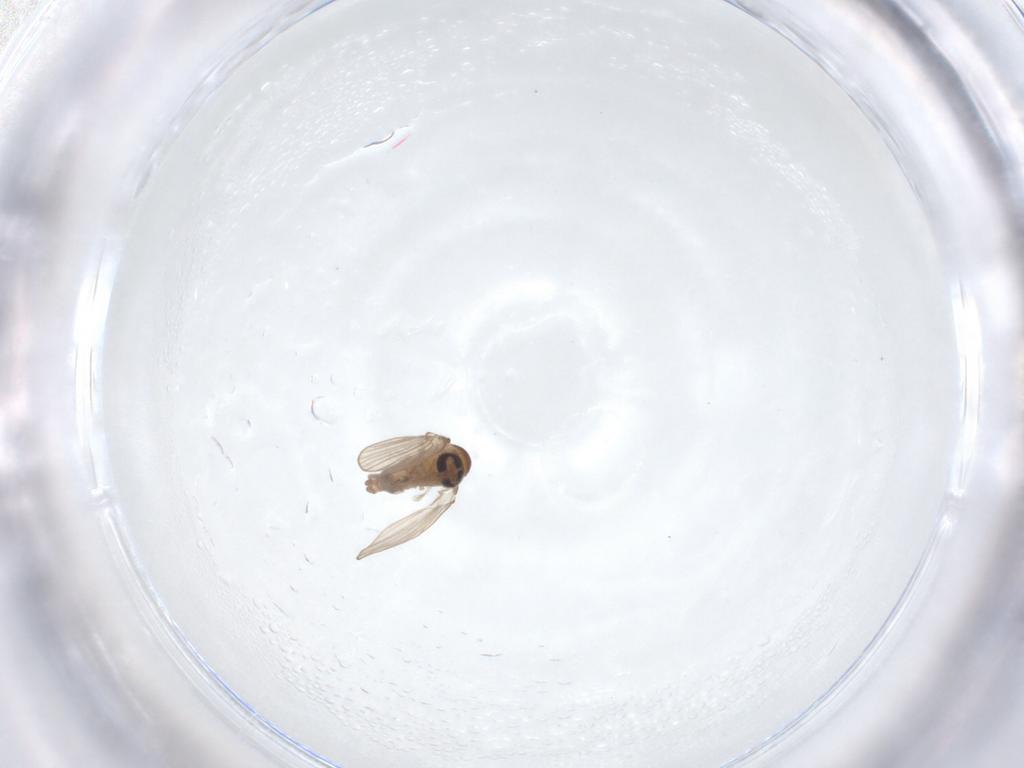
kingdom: Animalia
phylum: Arthropoda
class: Insecta
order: Diptera
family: Psychodidae
